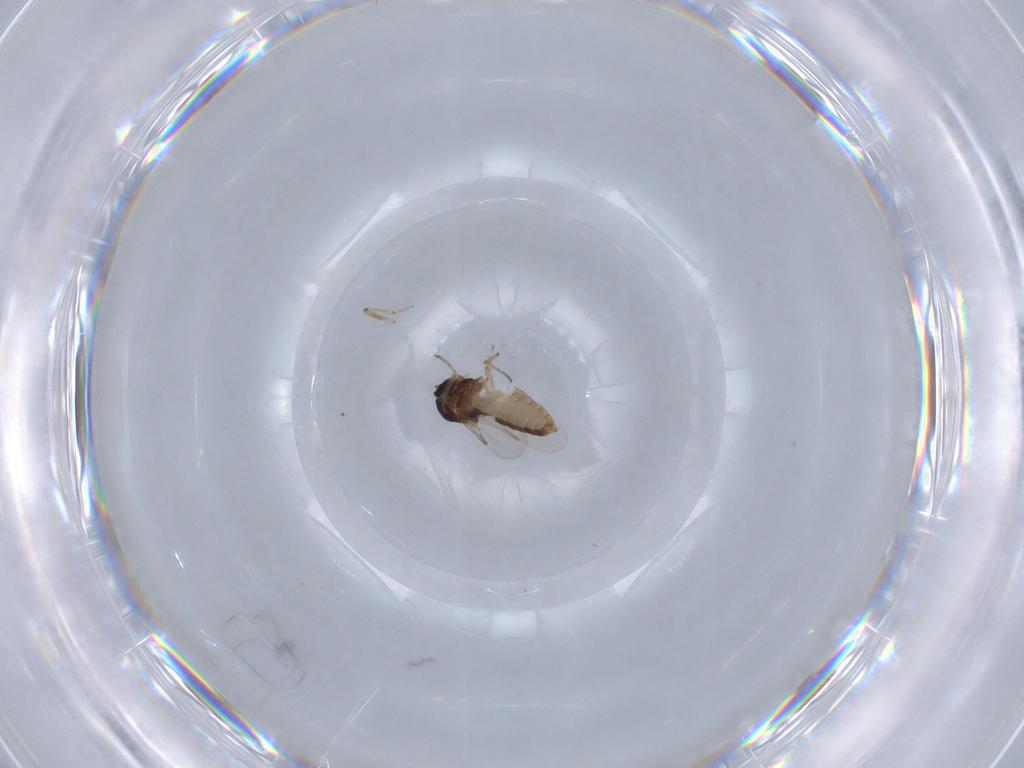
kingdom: Animalia
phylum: Arthropoda
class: Insecta
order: Diptera
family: Ceratopogonidae
